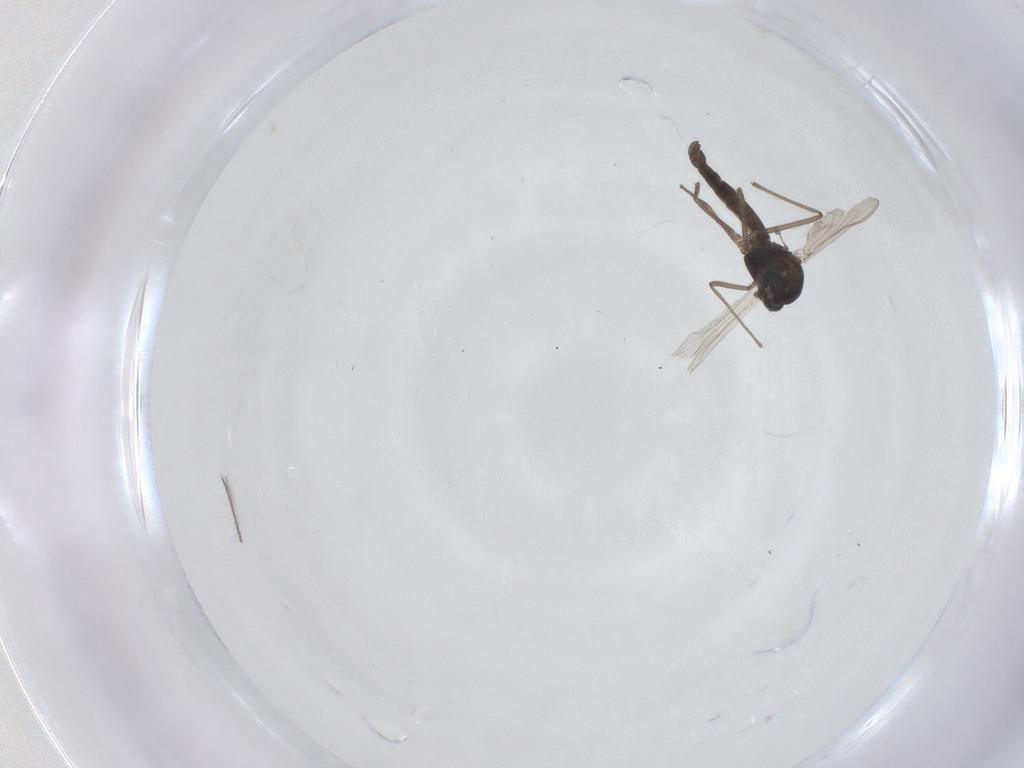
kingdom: Animalia
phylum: Arthropoda
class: Insecta
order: Diptera
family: Chironomidae
